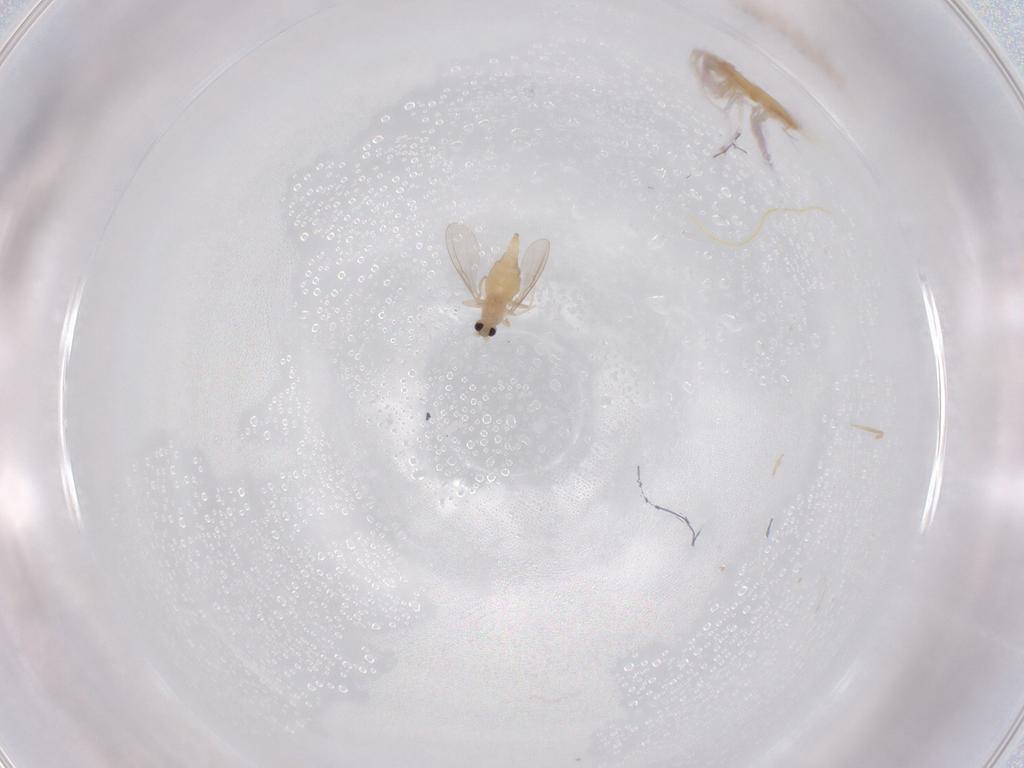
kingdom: Animalia
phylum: Arthropoda
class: Insecta
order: Diptera
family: Cecidomyiidae
